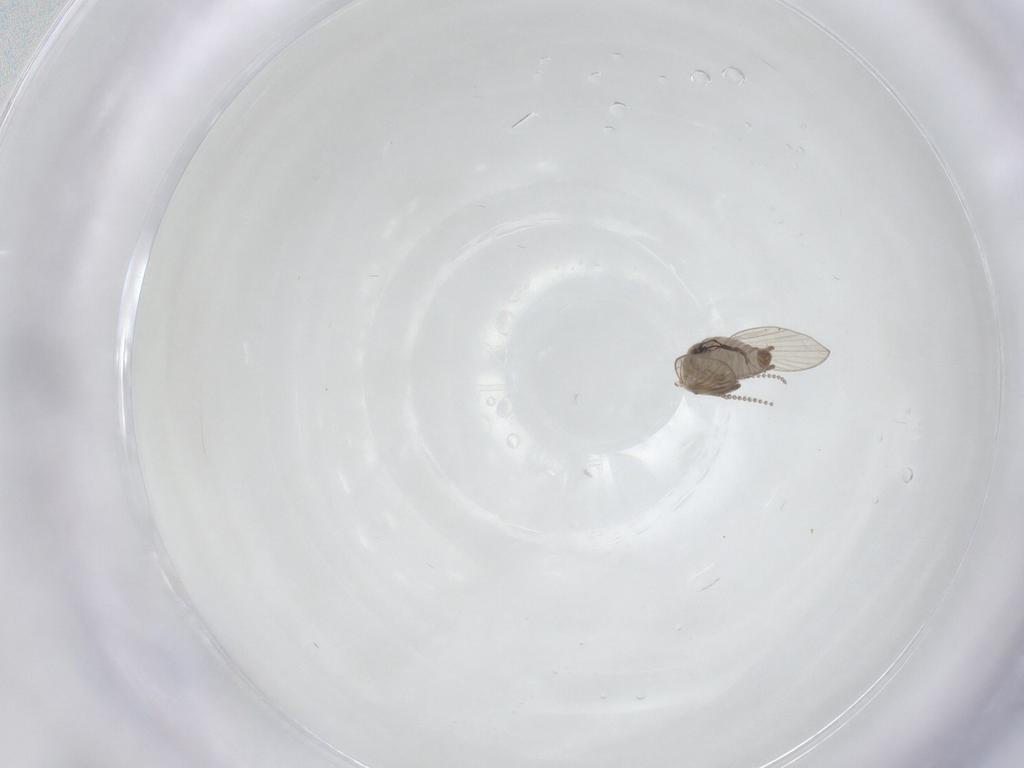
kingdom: Animalia
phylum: Arthropoda
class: Insecta
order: Diptera
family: Psychodidae
